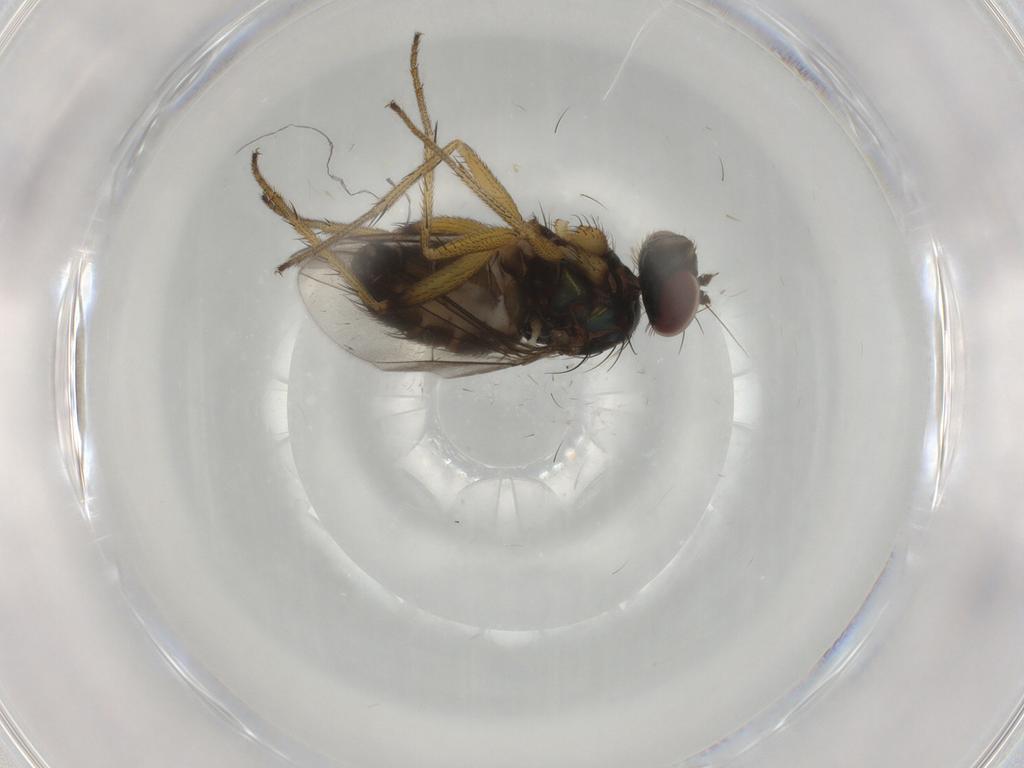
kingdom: Animalia
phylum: Arthropoda
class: Insecta
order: Diptera
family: Dolichopodidae
